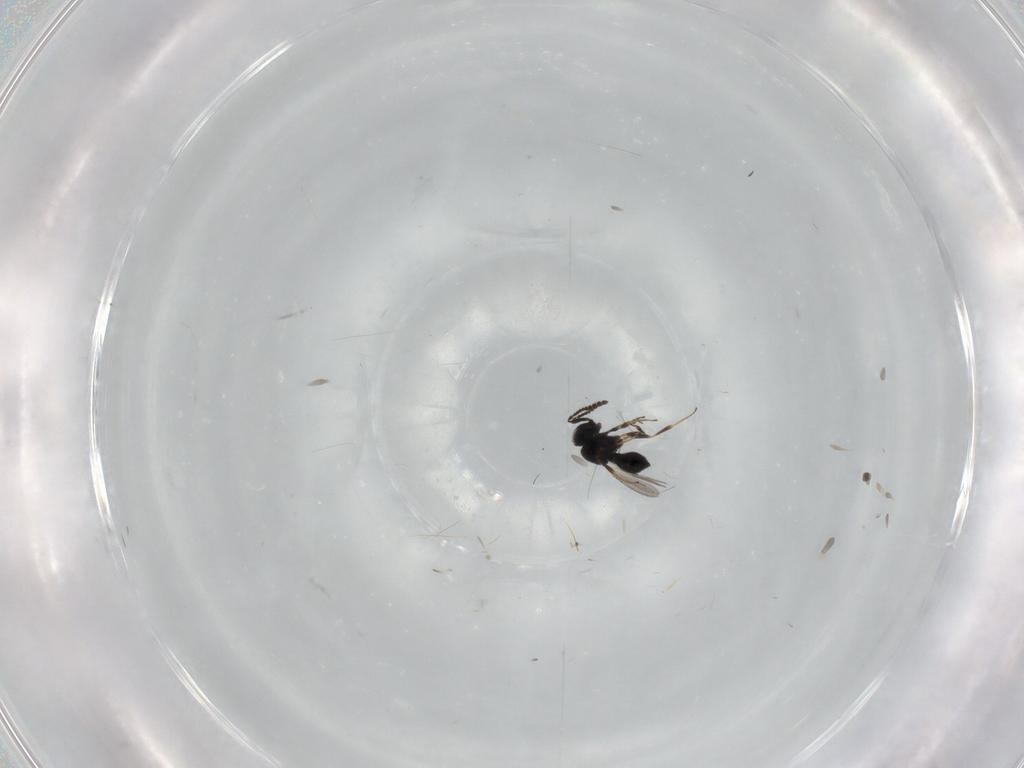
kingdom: Animalia
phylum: Arthropoda
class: Insecta
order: Hymenoptera
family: Scelionidae
